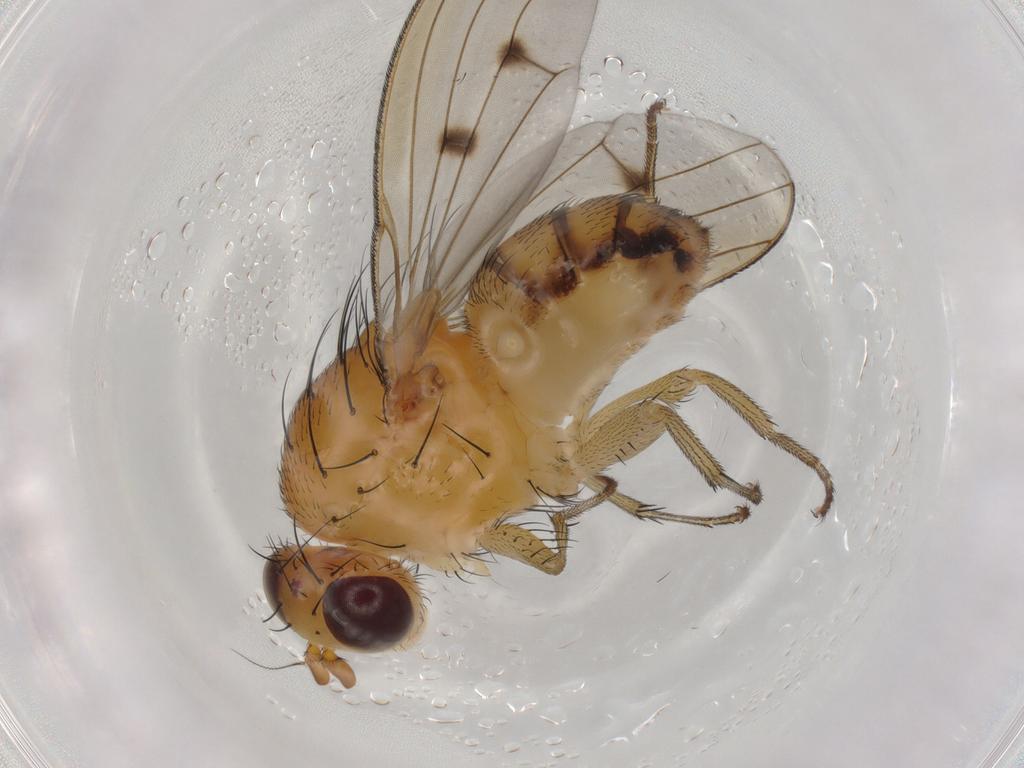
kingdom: Animalia
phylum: Arthropoda
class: Insecta
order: Diptera
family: Lauxaniidae
